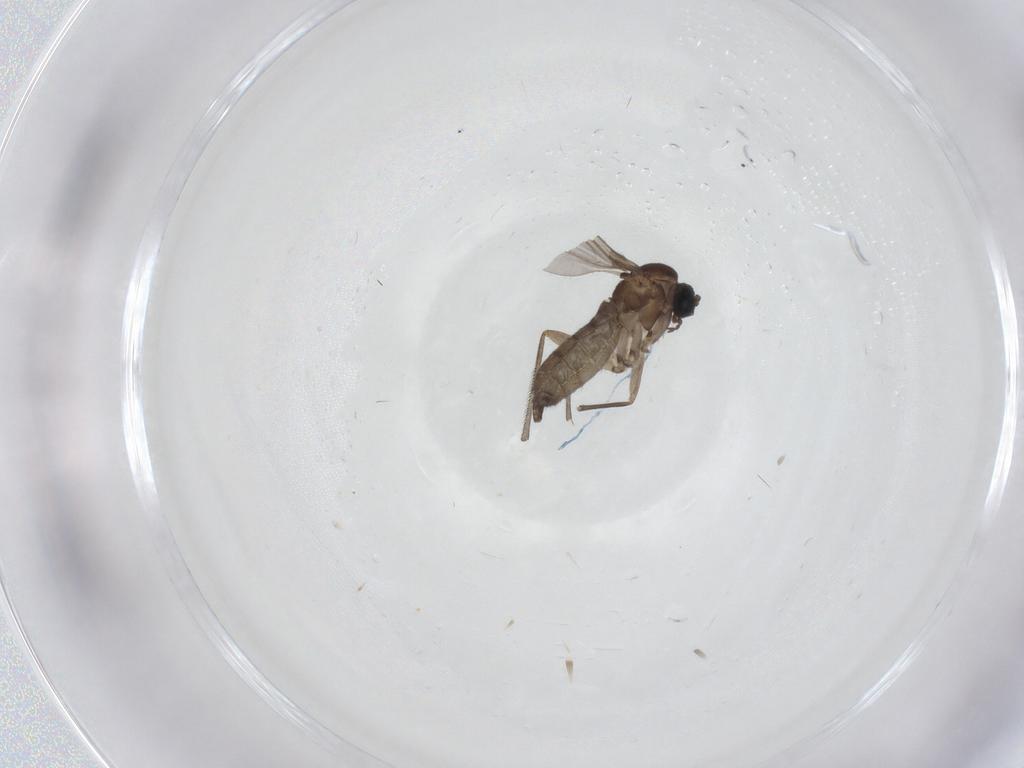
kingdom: Animalia
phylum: Arthropoda
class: Insecta
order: Diptera
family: Sciaridae
